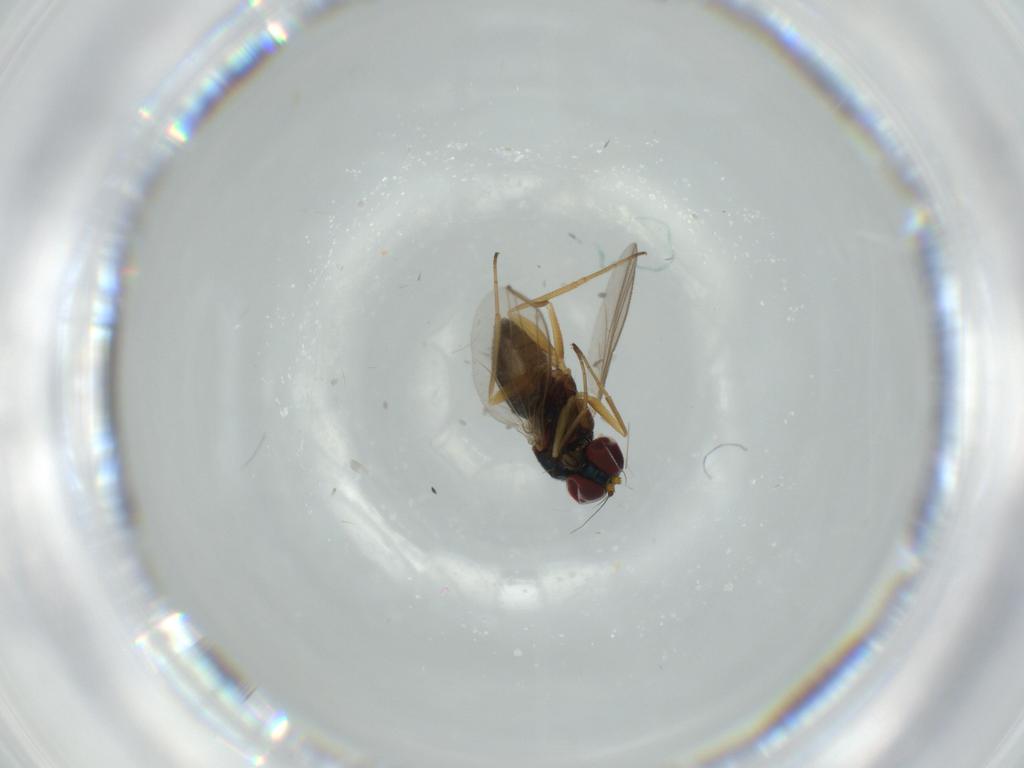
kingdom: Animalia
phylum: Arthropoda
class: Insecta
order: Diptera
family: Dolichopodidae
